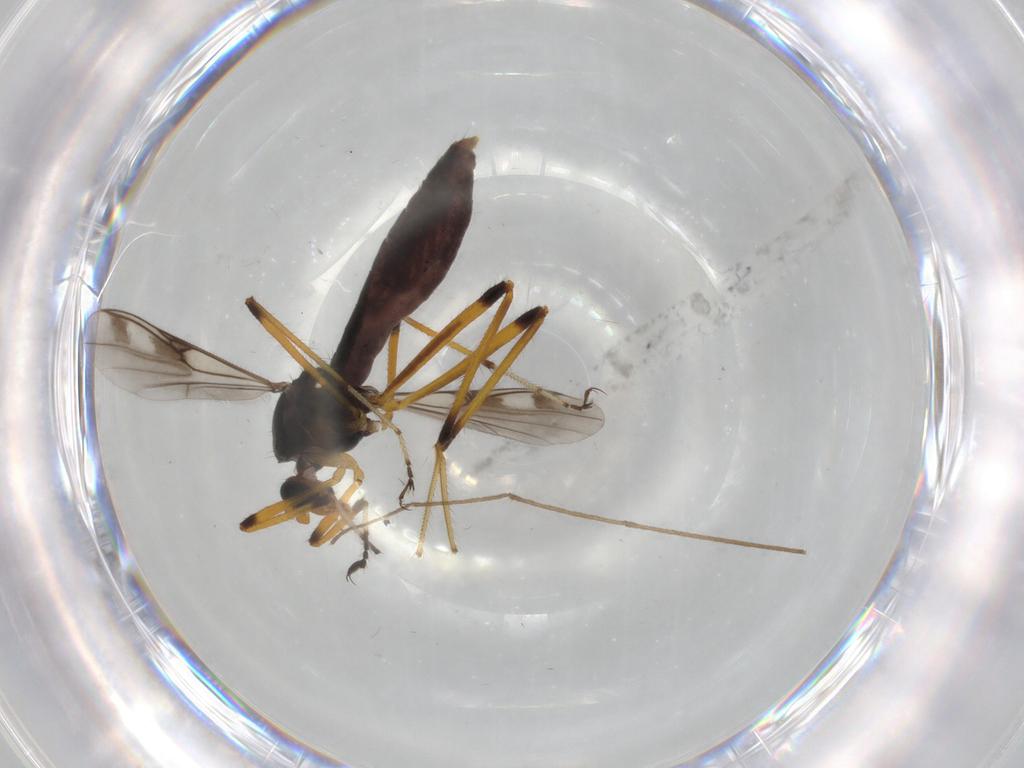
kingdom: Animalia
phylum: Arthropoda
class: Insecta
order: Diptera
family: Ceratopogonidae
